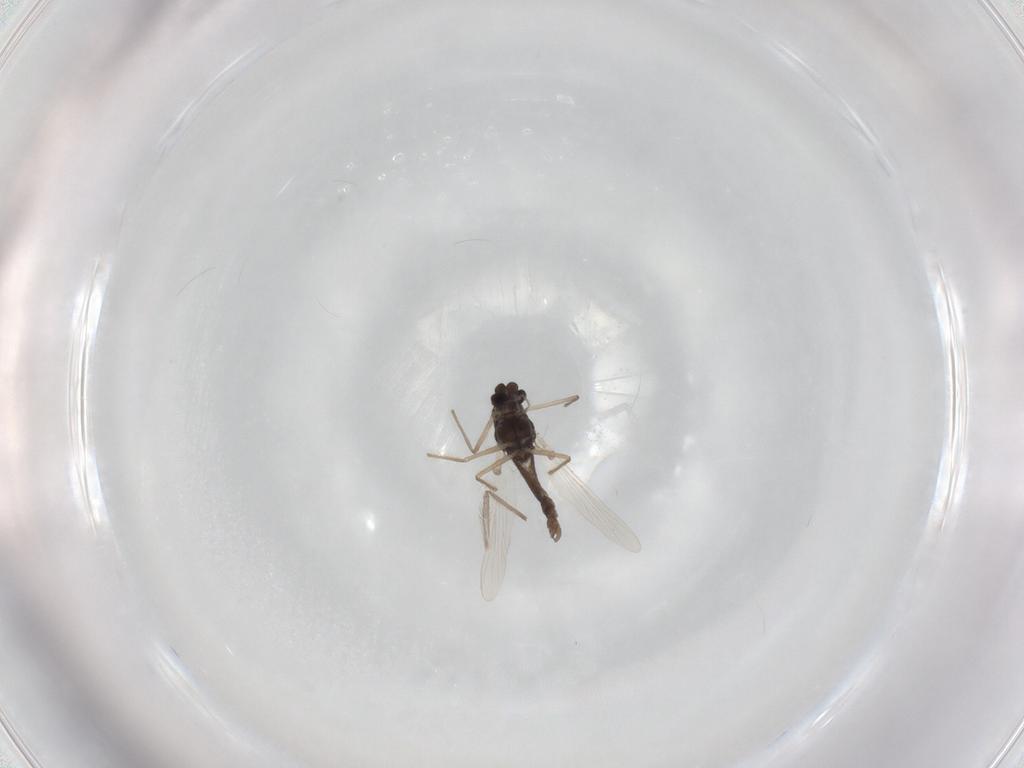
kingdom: Animalia
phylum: Arthropoda
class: Insecta
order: Diptera
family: Chironomidae
